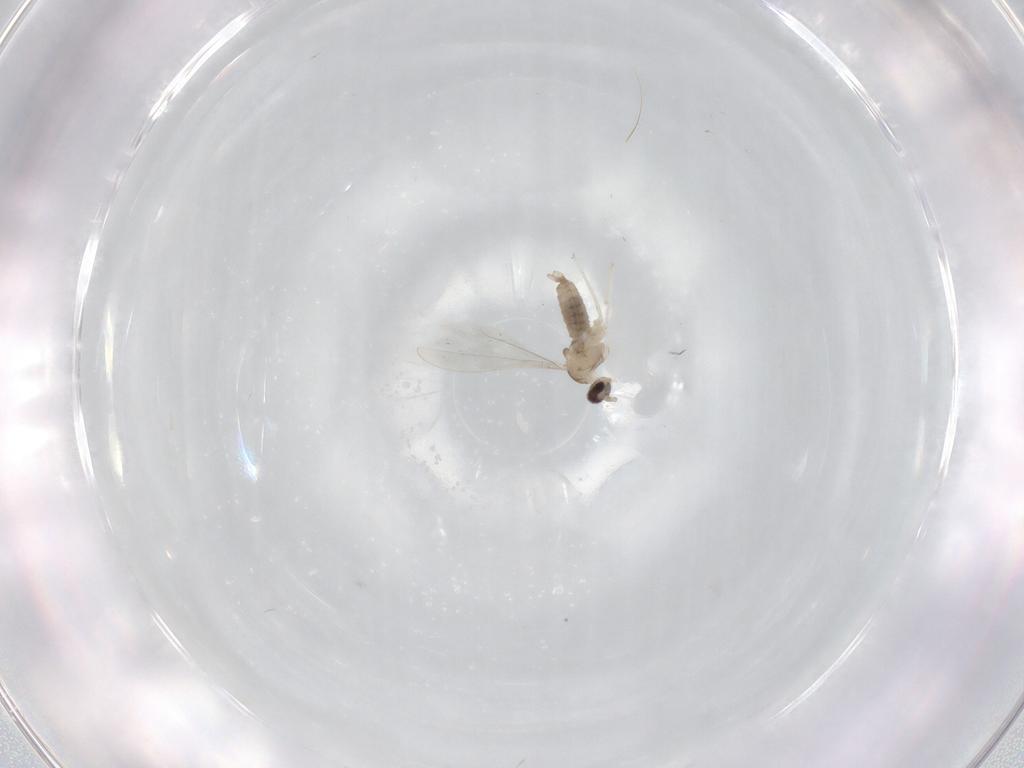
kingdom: Animalia
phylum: Arthropoda
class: Insecta
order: Diptera
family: Cecidomyiidae
